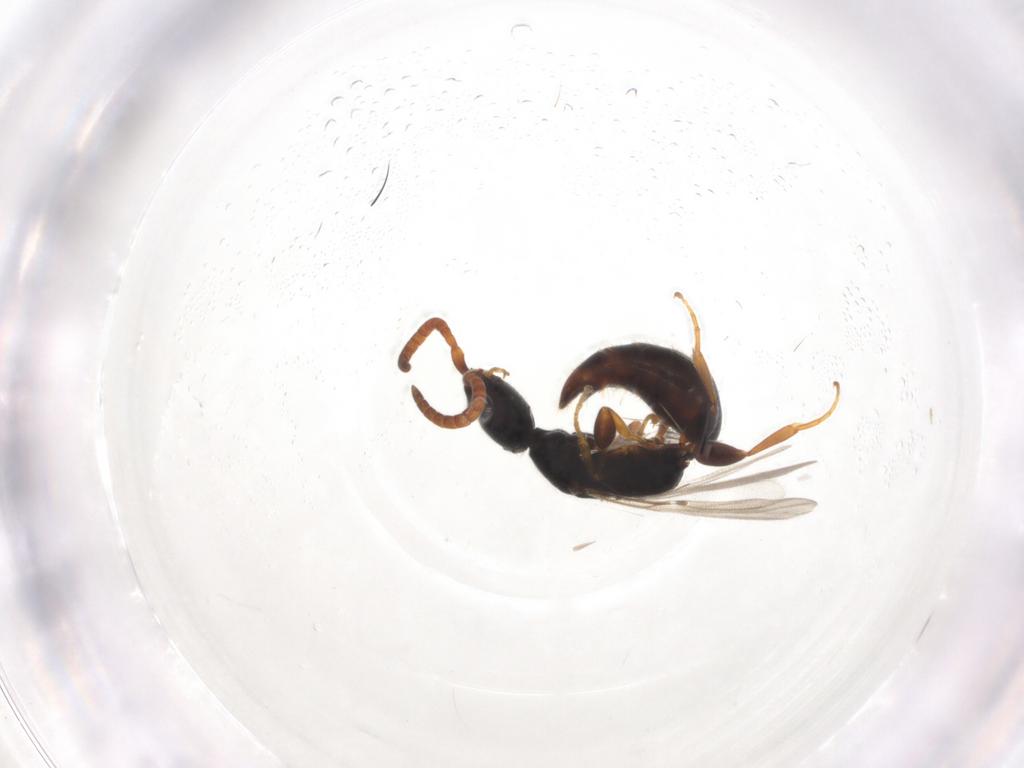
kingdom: Animalia
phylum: Arthropoda
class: Insecta
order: Hymenoptera
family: Bethylidae
